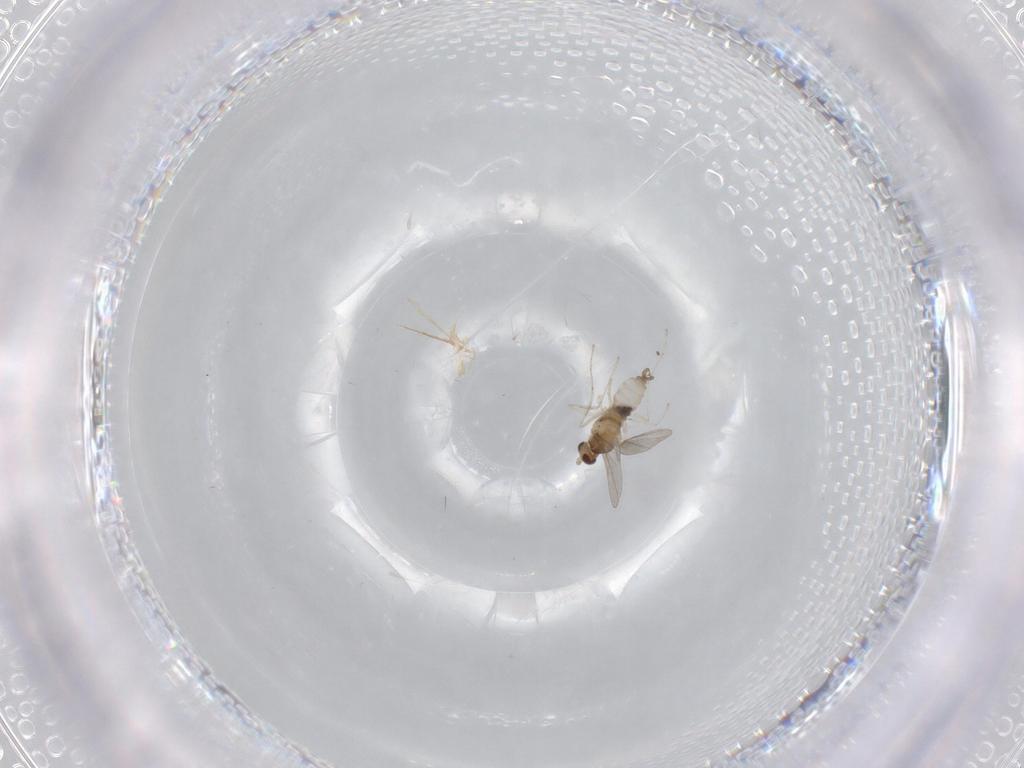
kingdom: Animalia
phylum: Arthropoda
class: Insecta
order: Diptera
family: Cecidomyiidae
